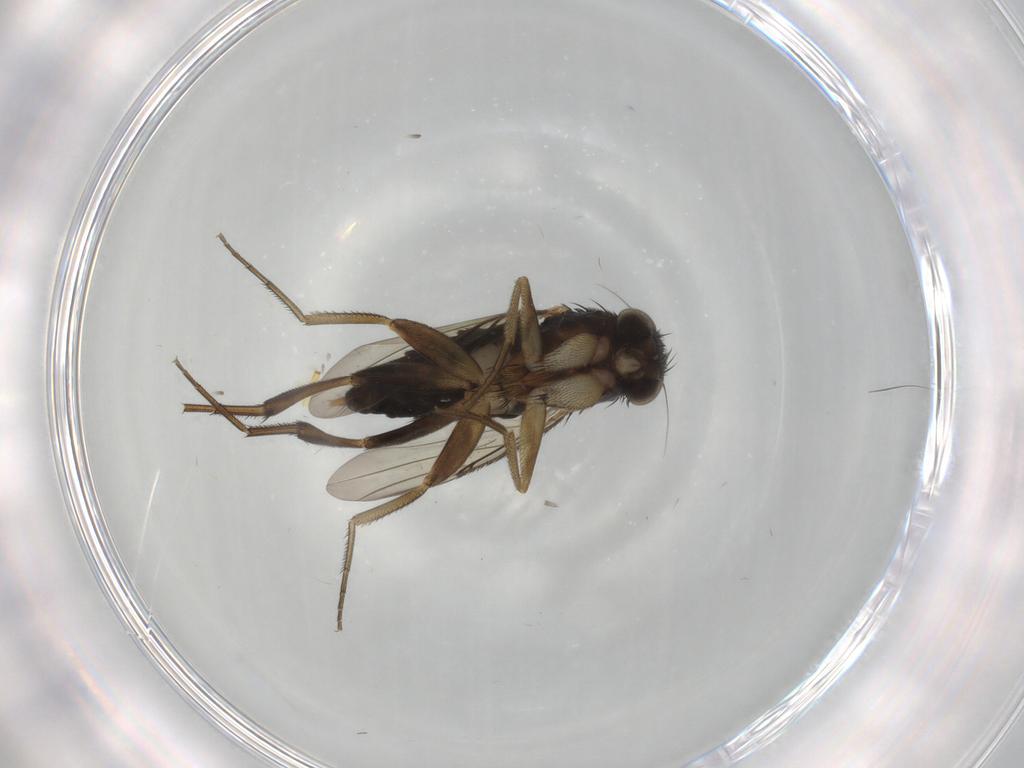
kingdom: Animalia
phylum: Arthropoda
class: Insecta
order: Diptera
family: Phoridae
